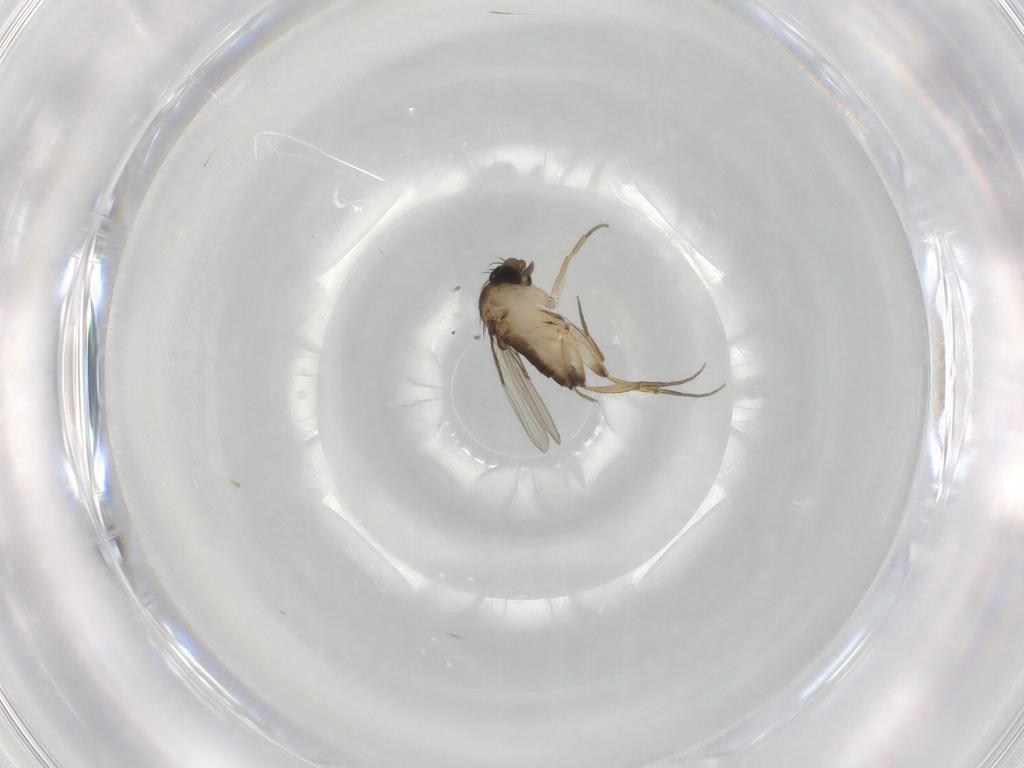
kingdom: Animalia
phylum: Arthropoda
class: Insecta
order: Diptera
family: Phoridae
